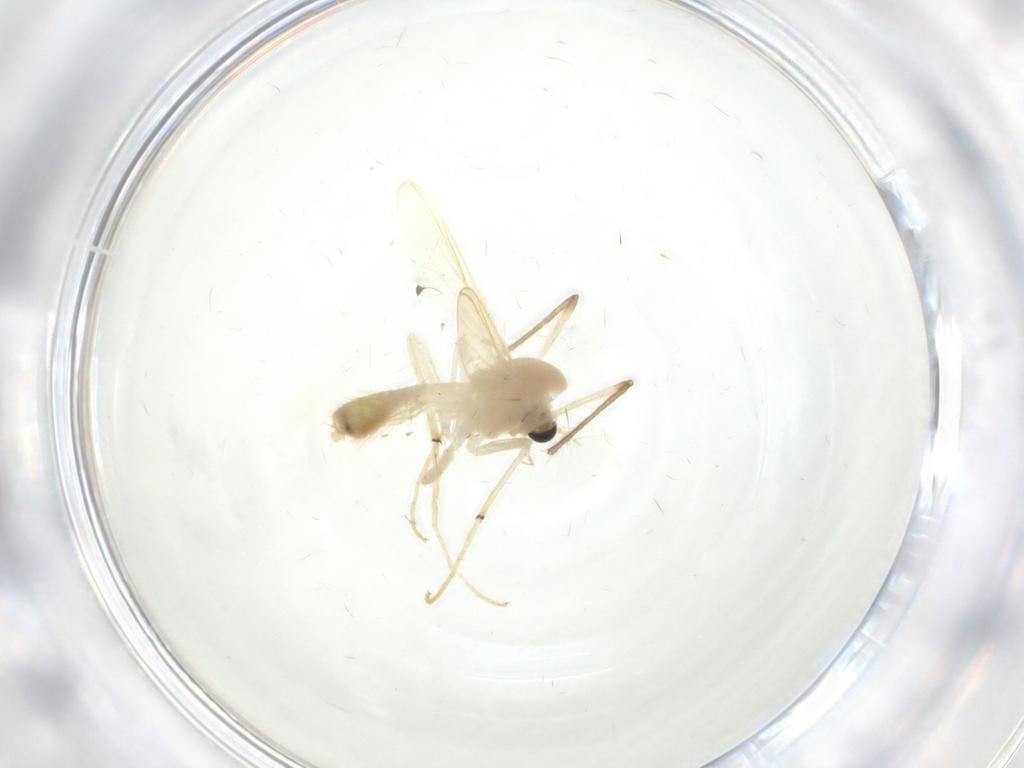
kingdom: Animalia
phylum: Arthropoda
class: Insecta
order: Diptera
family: Chironomidae
